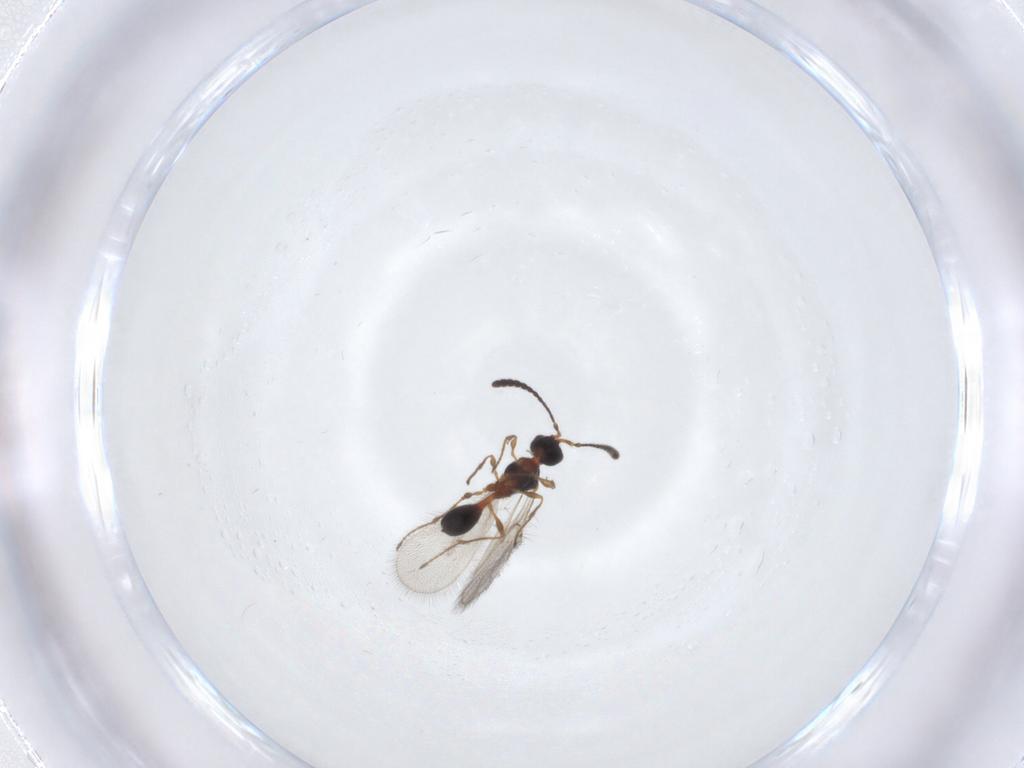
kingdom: Animalia
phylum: Arthropoda
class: Insecta
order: Hymenoptera
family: Diapriidae
